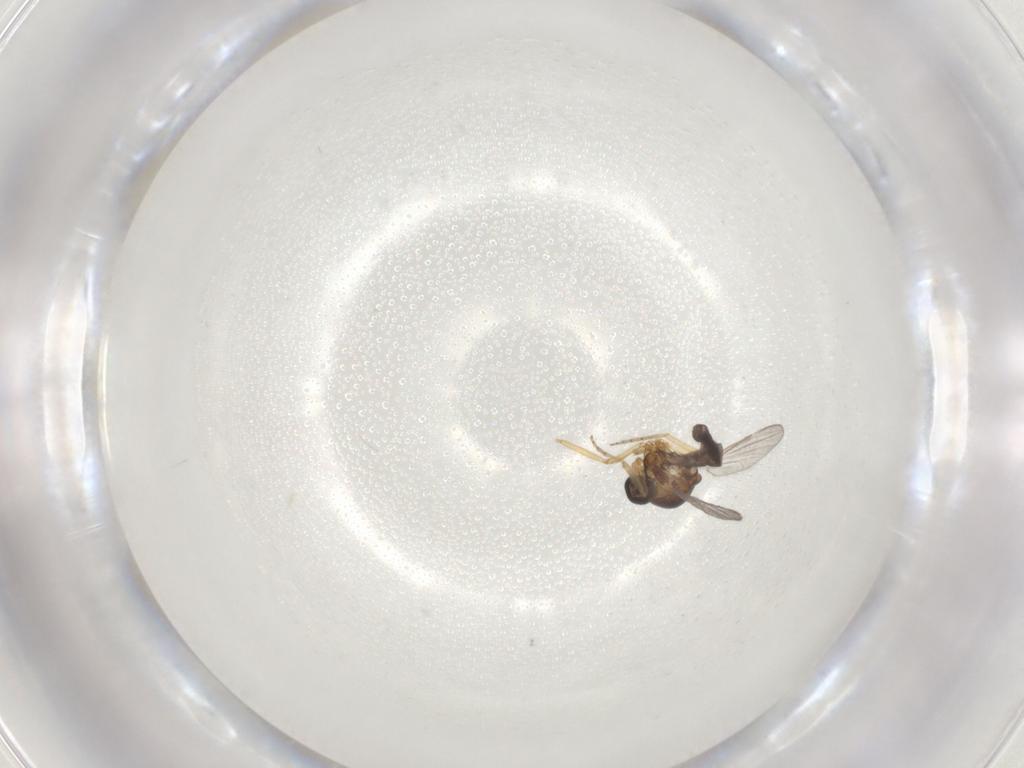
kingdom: Animalia
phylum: Arthropoda
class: Insecta
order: Diptera
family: Ceratopogonidae
